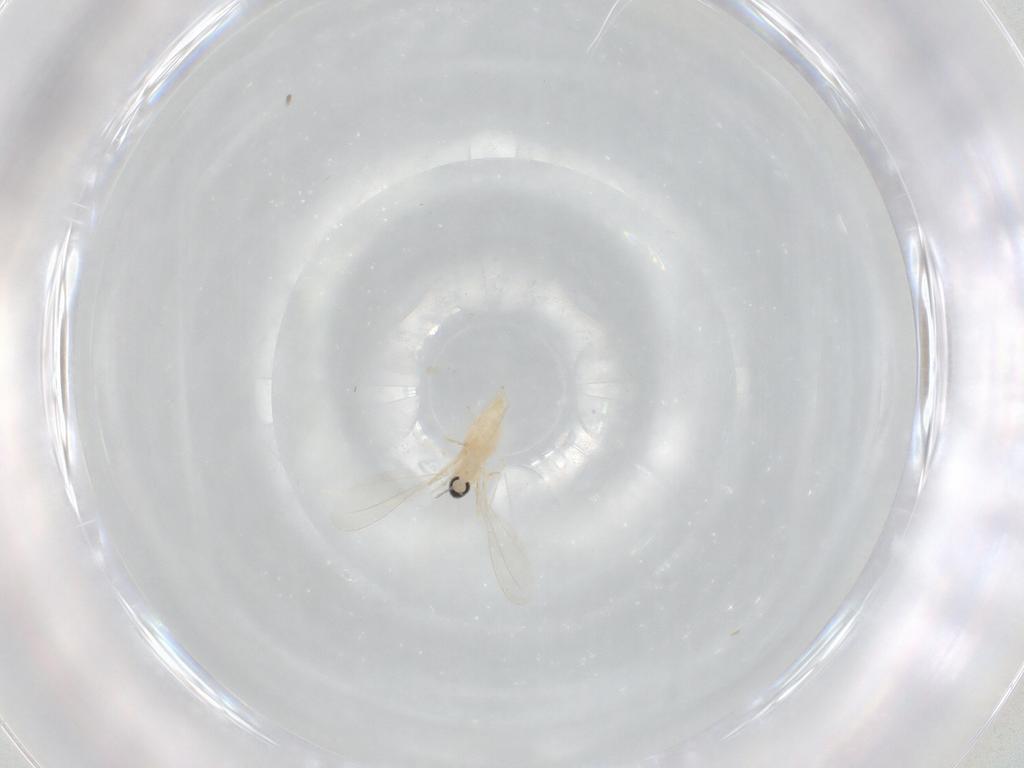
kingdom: Animalia
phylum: Arthropoda
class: Insecta
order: Diptera
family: Cecidomyiidae
